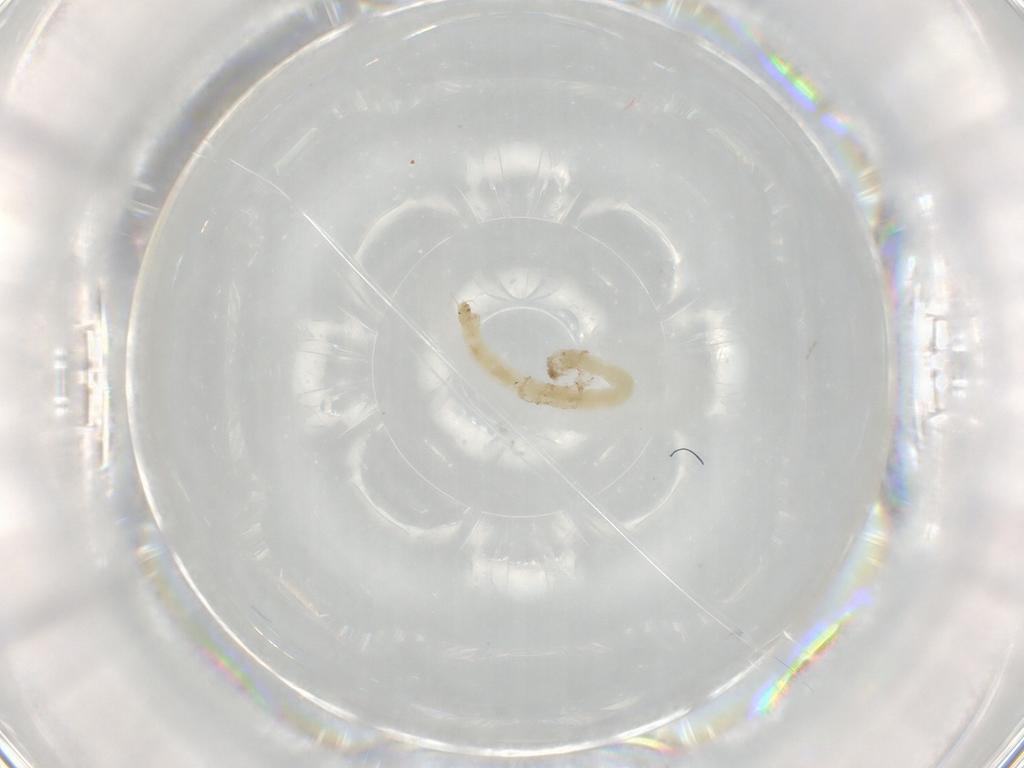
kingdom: Animalia
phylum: Arthropoda
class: Insecta
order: Diptera
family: Chironomidae
